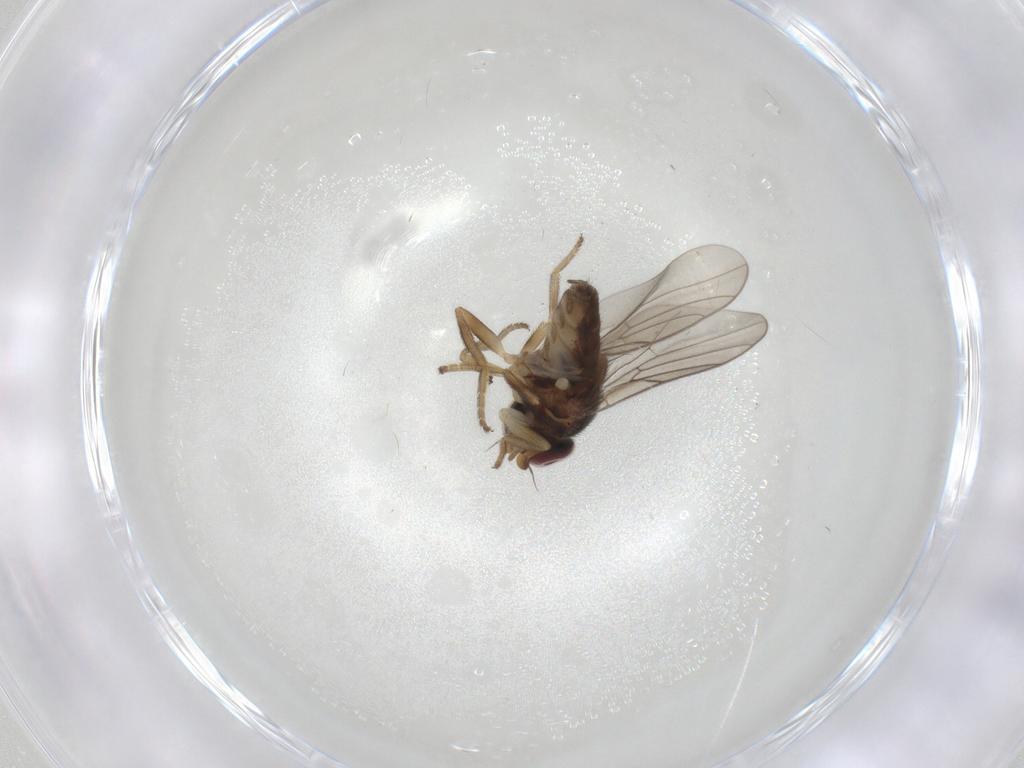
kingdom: Animalia
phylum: Arthropoda
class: Insecta
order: Diptera
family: Chloropidae
